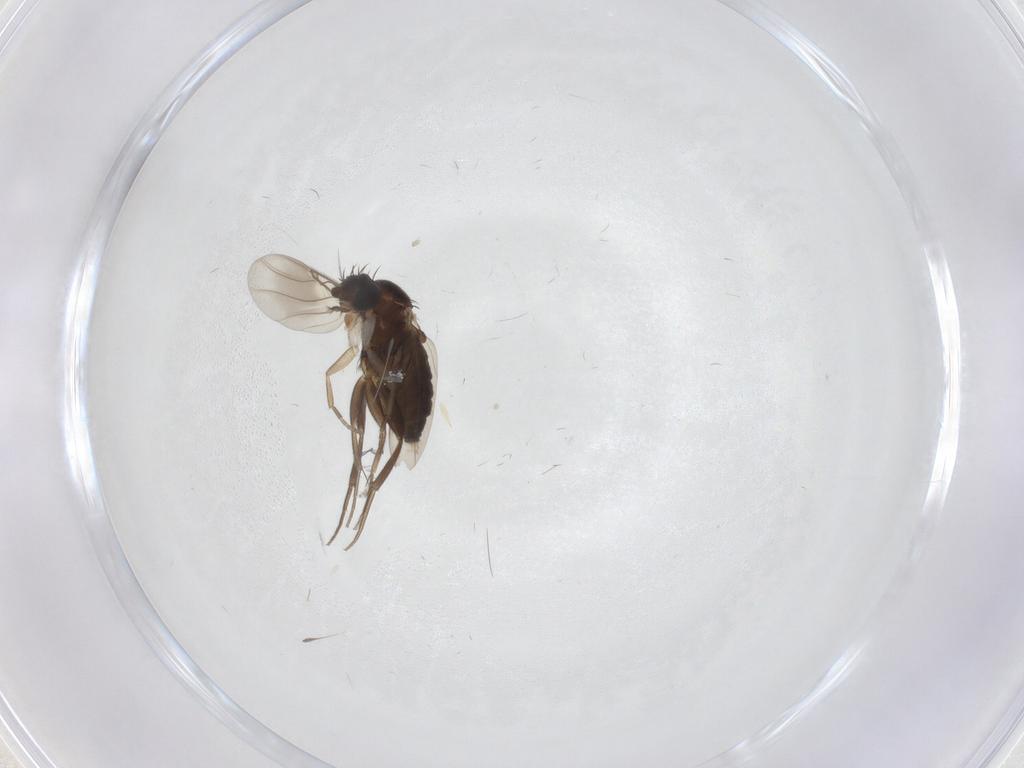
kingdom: Animalia
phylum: Arthropoda
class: Insecta
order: Diptera
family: Phoridae
